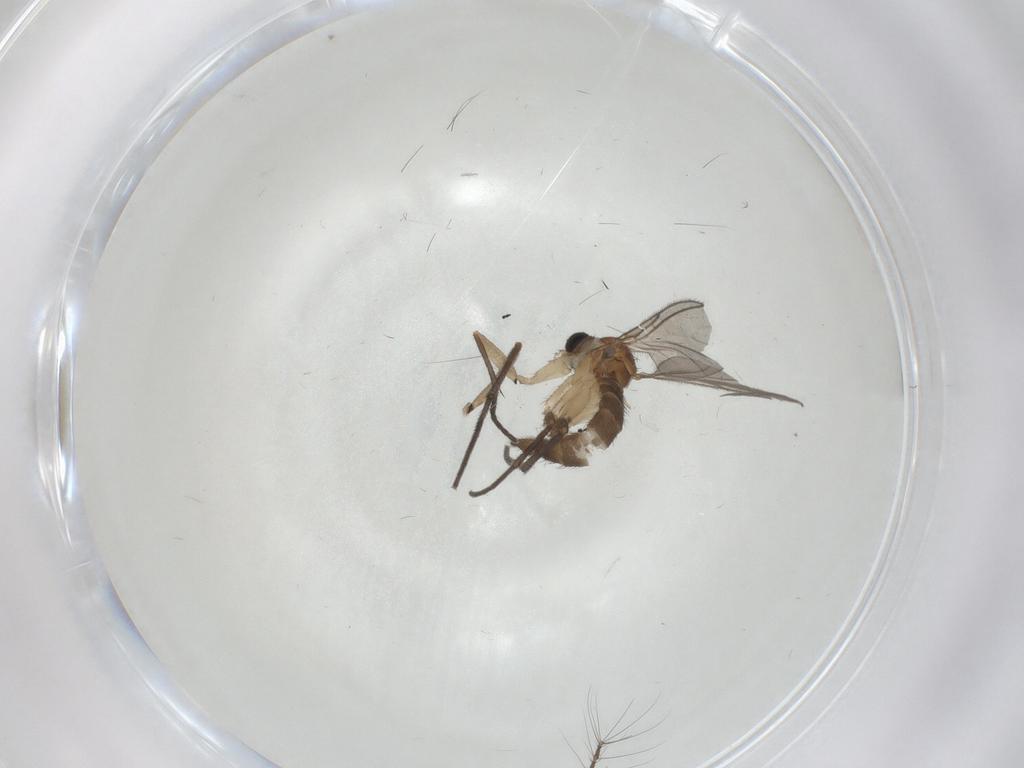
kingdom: Animalia
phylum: Arthropoda
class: Insecta
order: Diptera
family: Sciaridae
